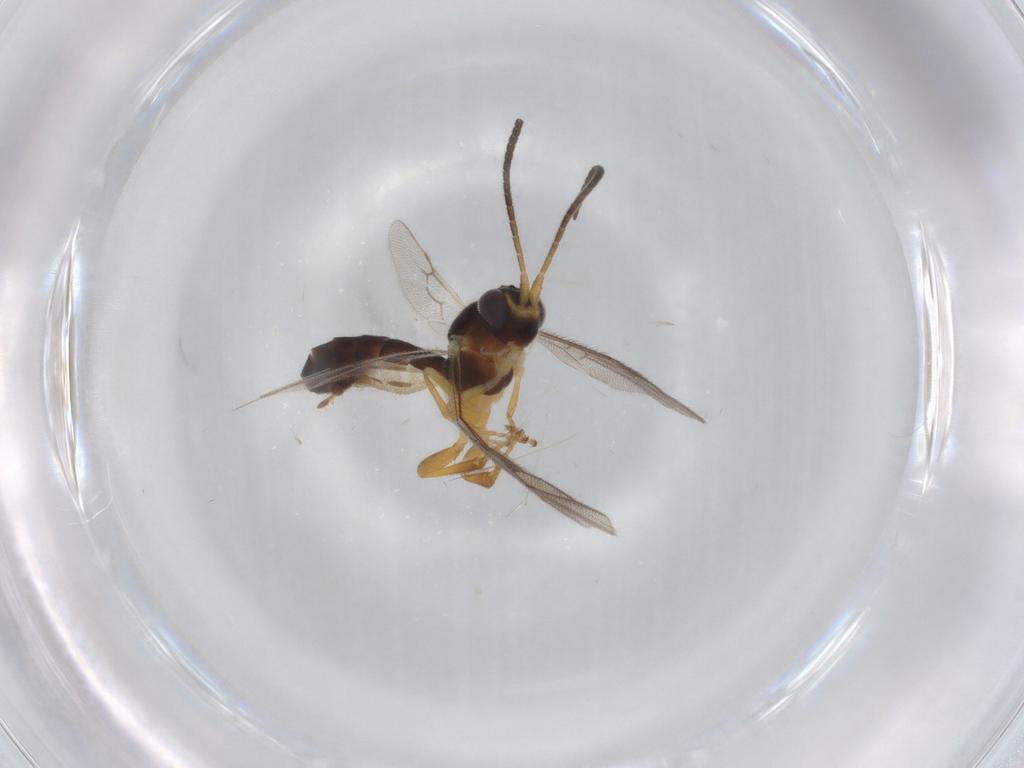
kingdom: Animalia
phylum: Arthropoda
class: Insecta
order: Hymenoptera
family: Ichneumonidae
